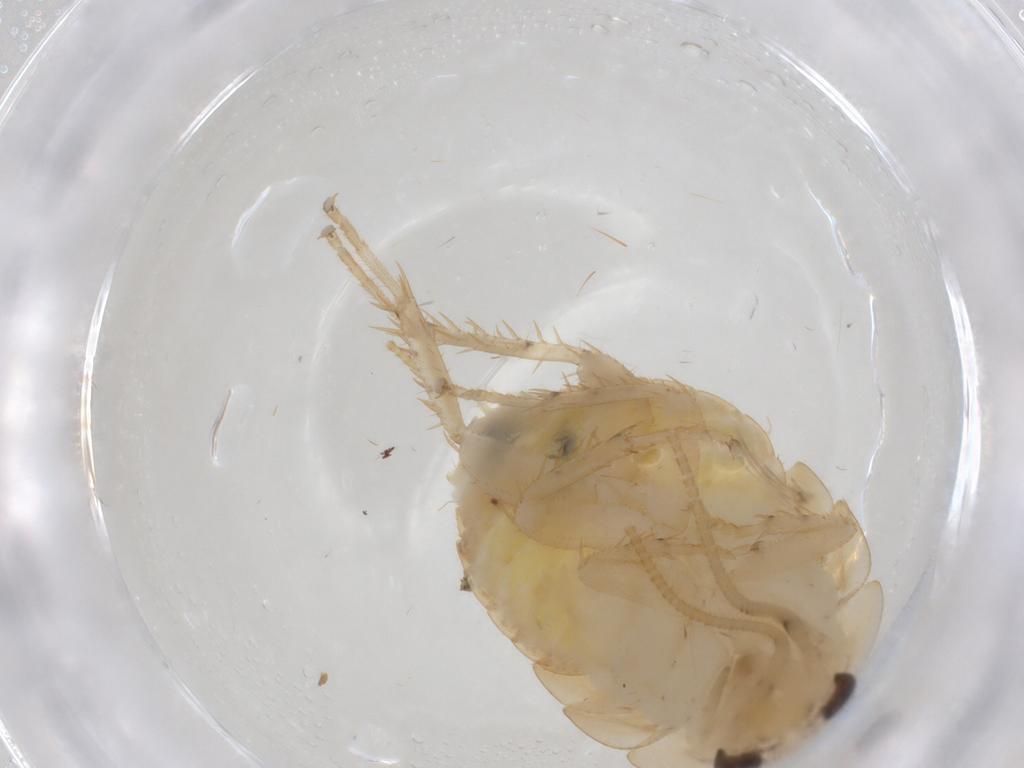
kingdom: Animalia
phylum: Arthropoda
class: Insecta
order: Blattodea
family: Ectobiidae
